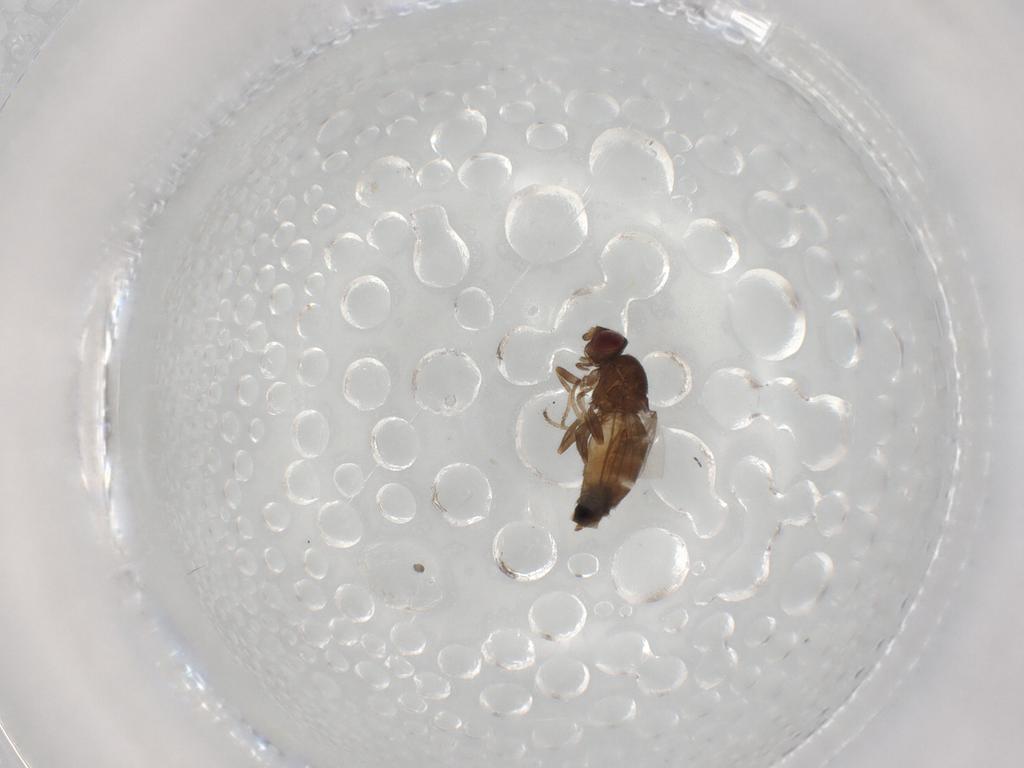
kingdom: Animalia
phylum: Arthropoda
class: Insecta
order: Diptera
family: Chloropidae
